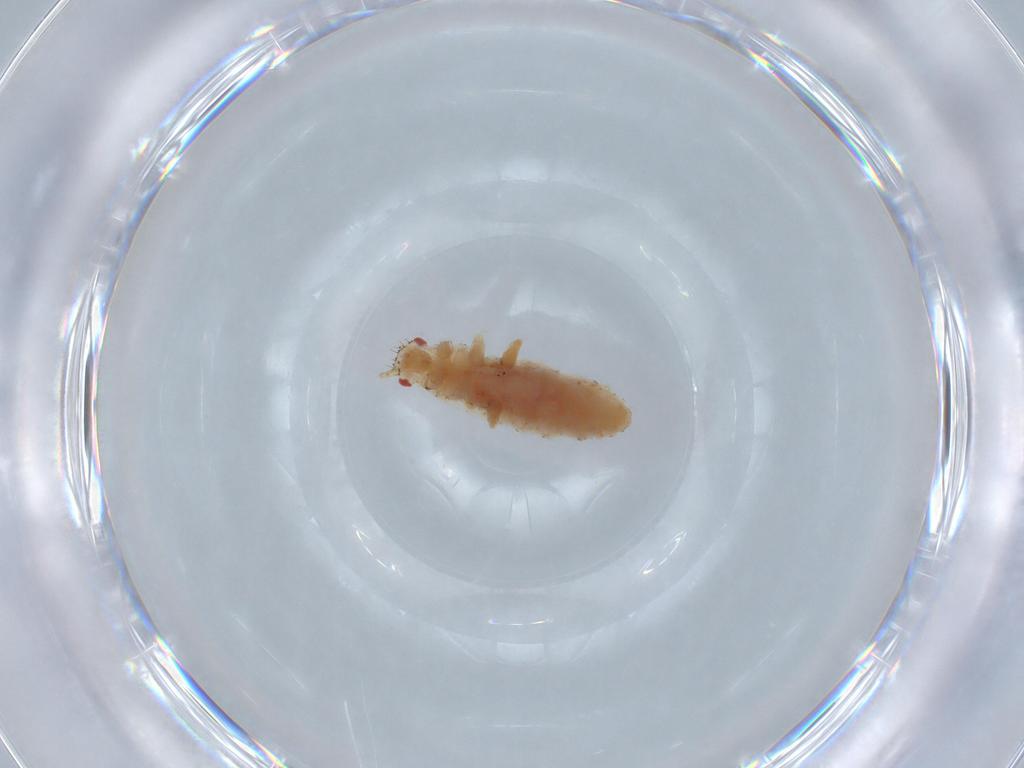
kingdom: Animalia
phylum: Arthropoda
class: Insecta
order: Hemiptera
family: Aphididae
